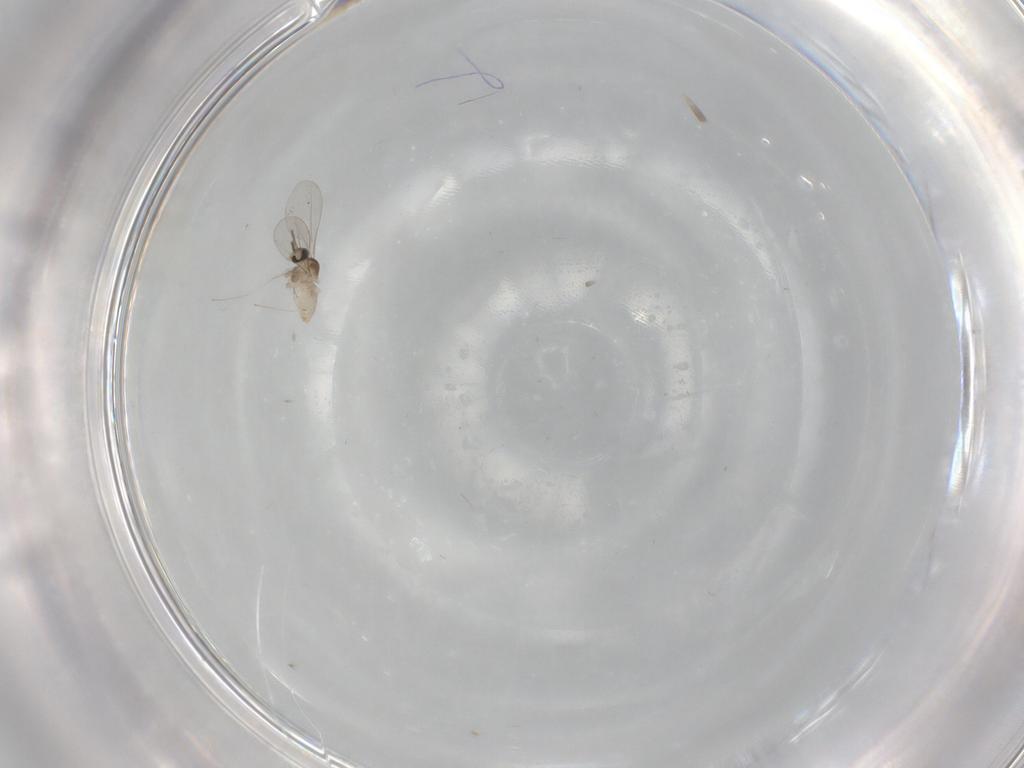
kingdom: Animalia
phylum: Arthropoda
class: Insecta
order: Diptera
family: Cecidomyiidae
